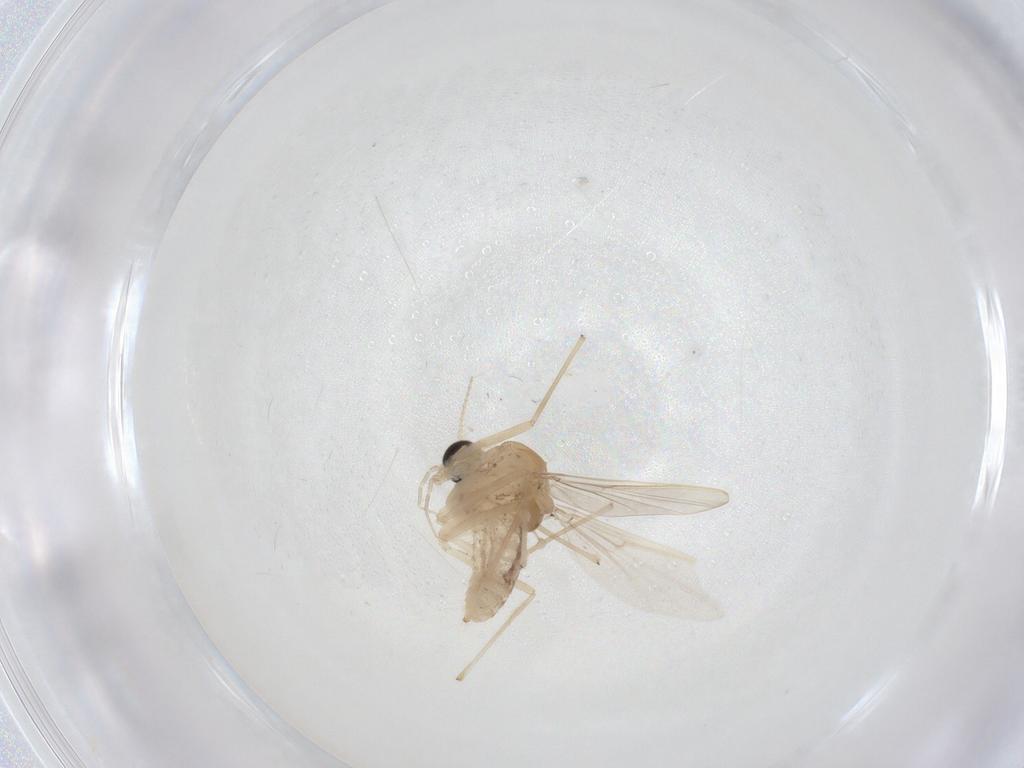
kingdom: Animalia
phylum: Arthropoda
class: Insecta
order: Diptera
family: Chironomidae
